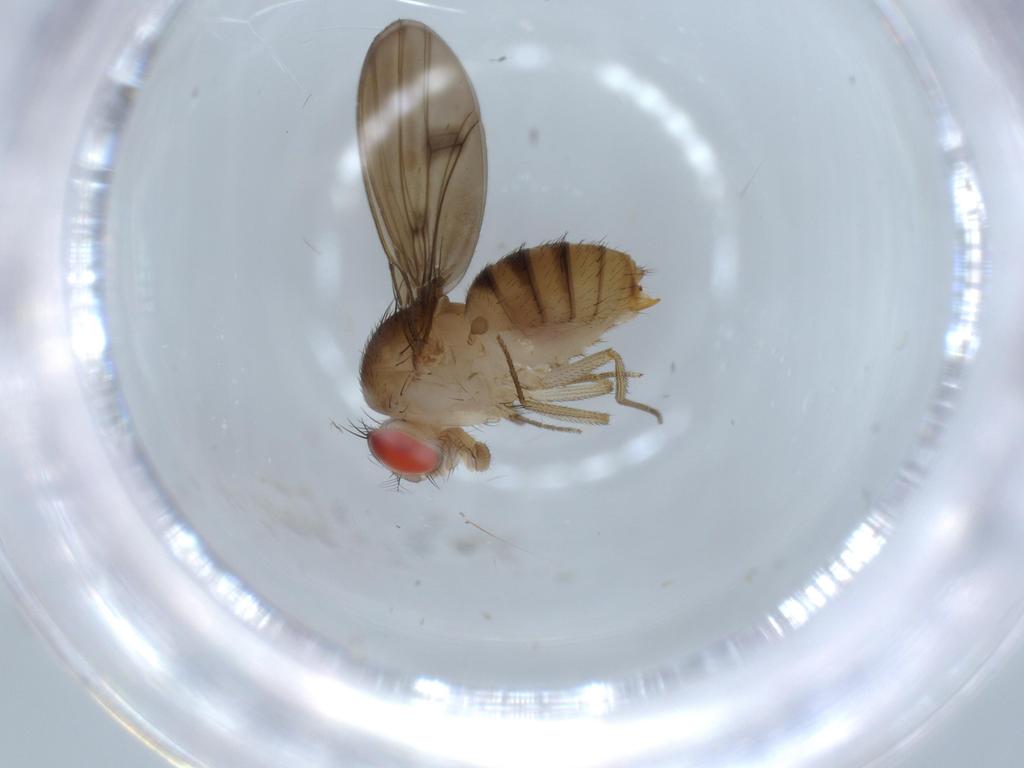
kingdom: Animalia
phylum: Arthropoda
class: Insecta
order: Diptera
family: Drosophilidae
